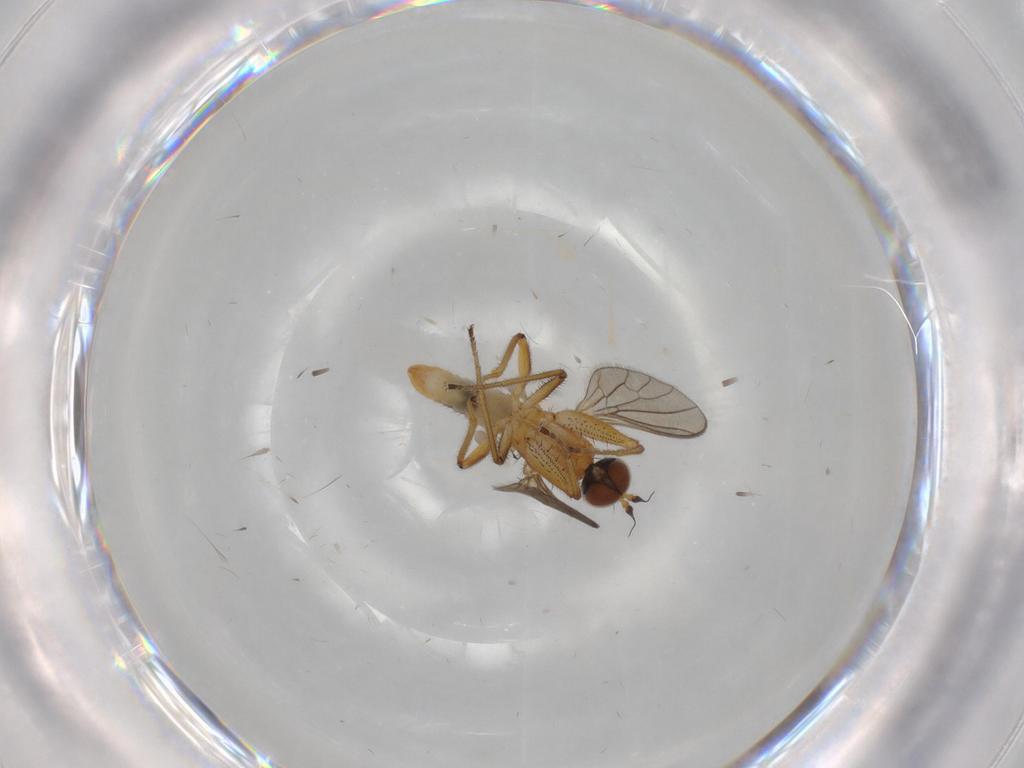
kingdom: Animalia
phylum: Arthropoda
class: Insecta
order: Diptera
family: Empididae
